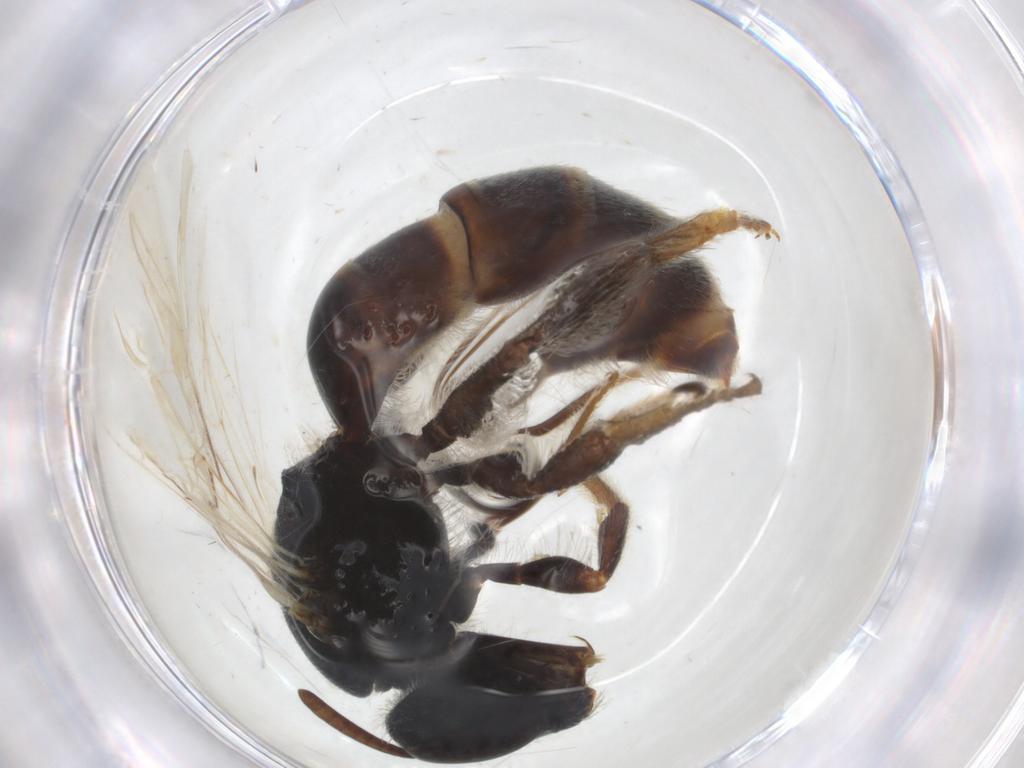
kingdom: Animalia
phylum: Arthropoda
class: Insecta
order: Hymenoptera
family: Halictidae
